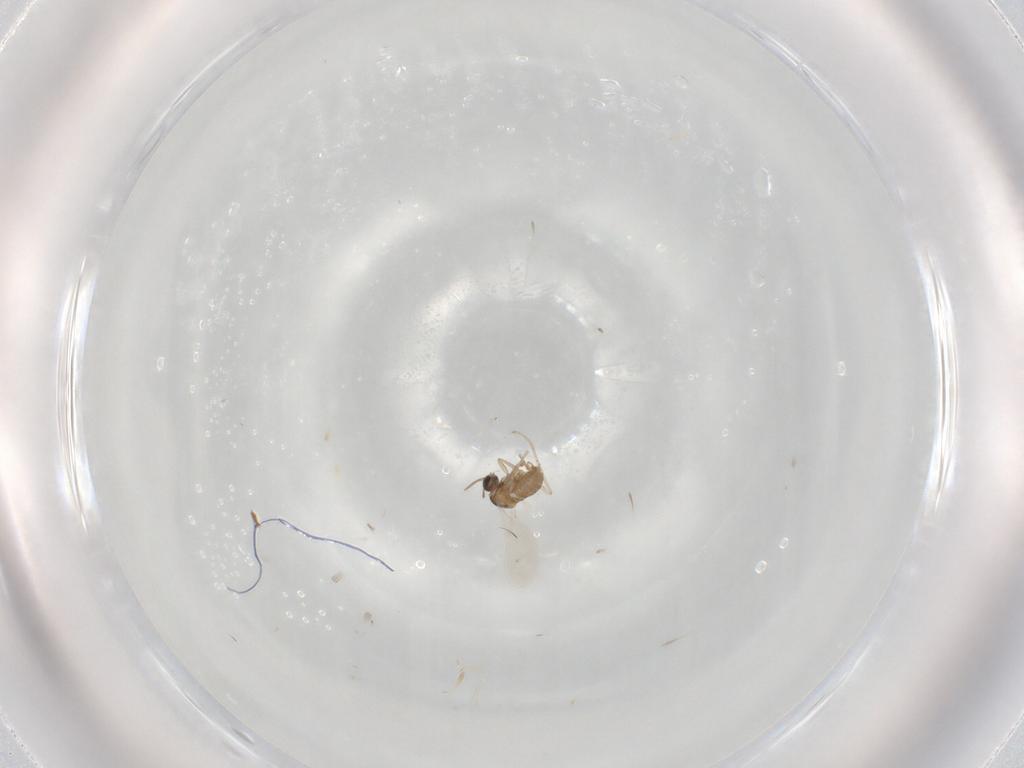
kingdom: Animalia
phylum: Arthropoda
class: Insecta
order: Diptera
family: Cecidomyiidae
